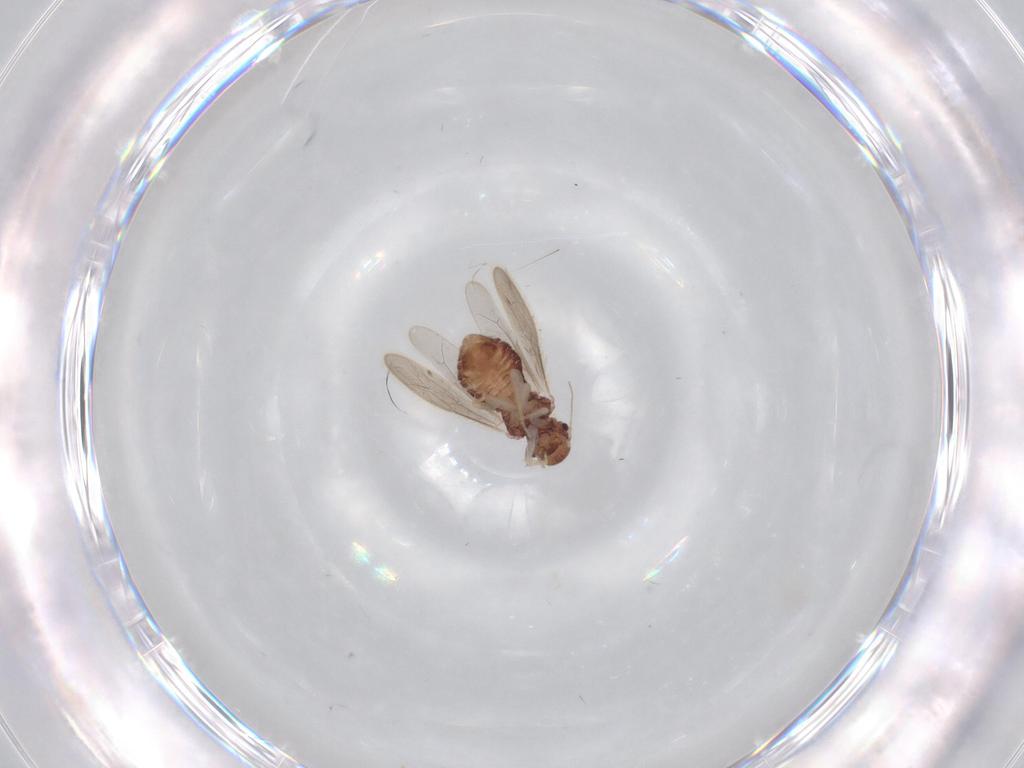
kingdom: Animalia
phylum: Arthropoda
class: Insecta
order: Psocodea
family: Archipsocidae
